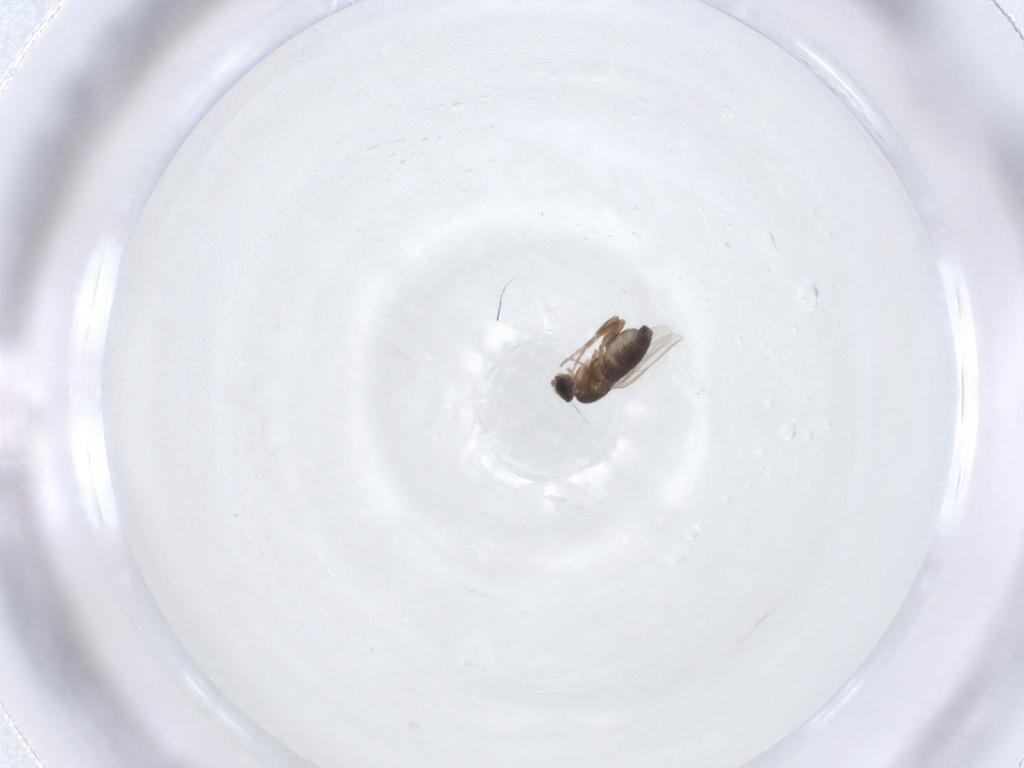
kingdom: Animalia
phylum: Arthropoda
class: Insecta
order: Diptera
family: Phoridae
